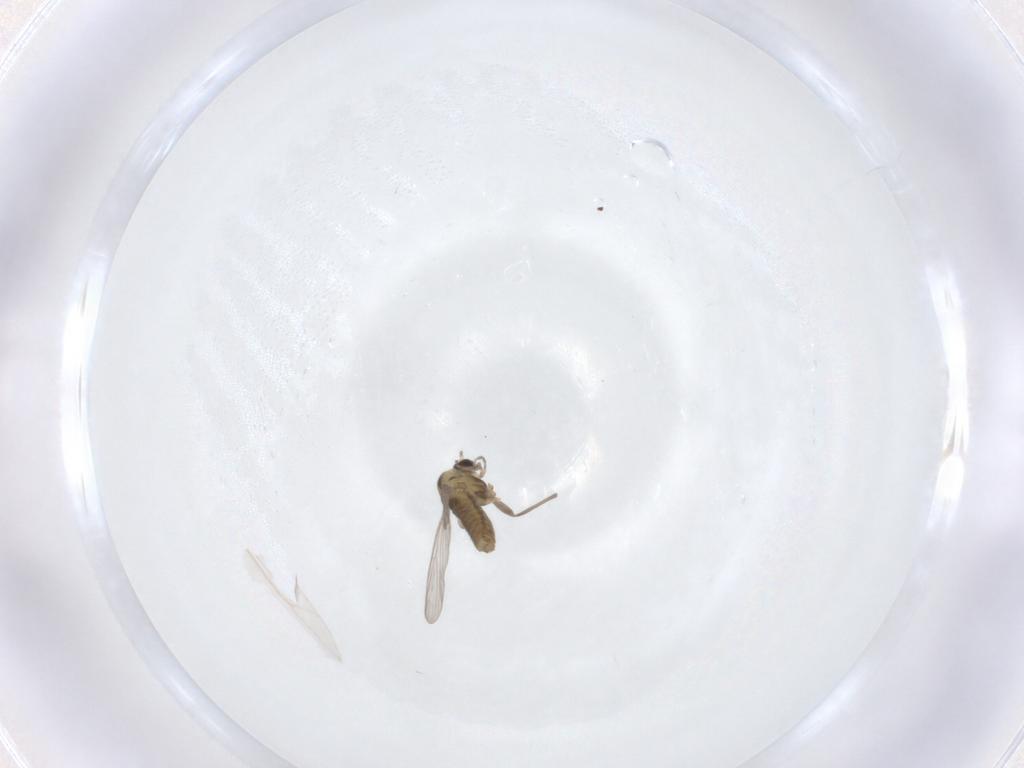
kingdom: Animalia
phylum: Arthropoda
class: Insecta
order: Diptera
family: Chironomidae
